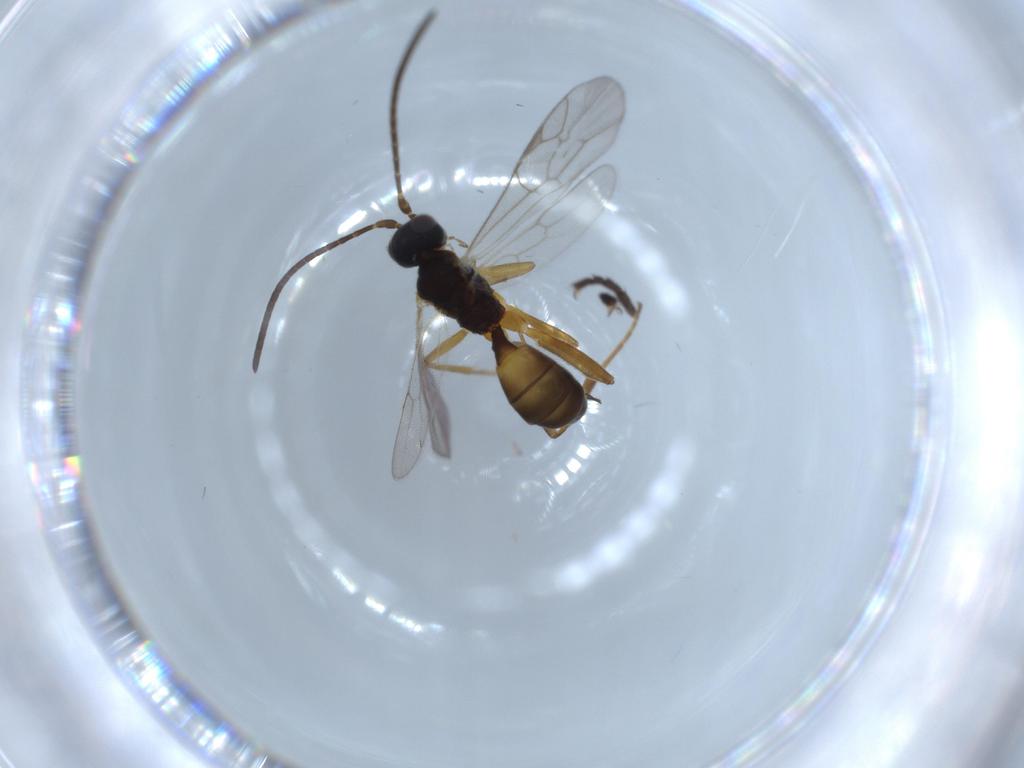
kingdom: Animalia
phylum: Arthropoda
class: Insecta
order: Hymenoptera
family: Ichneumonidae
